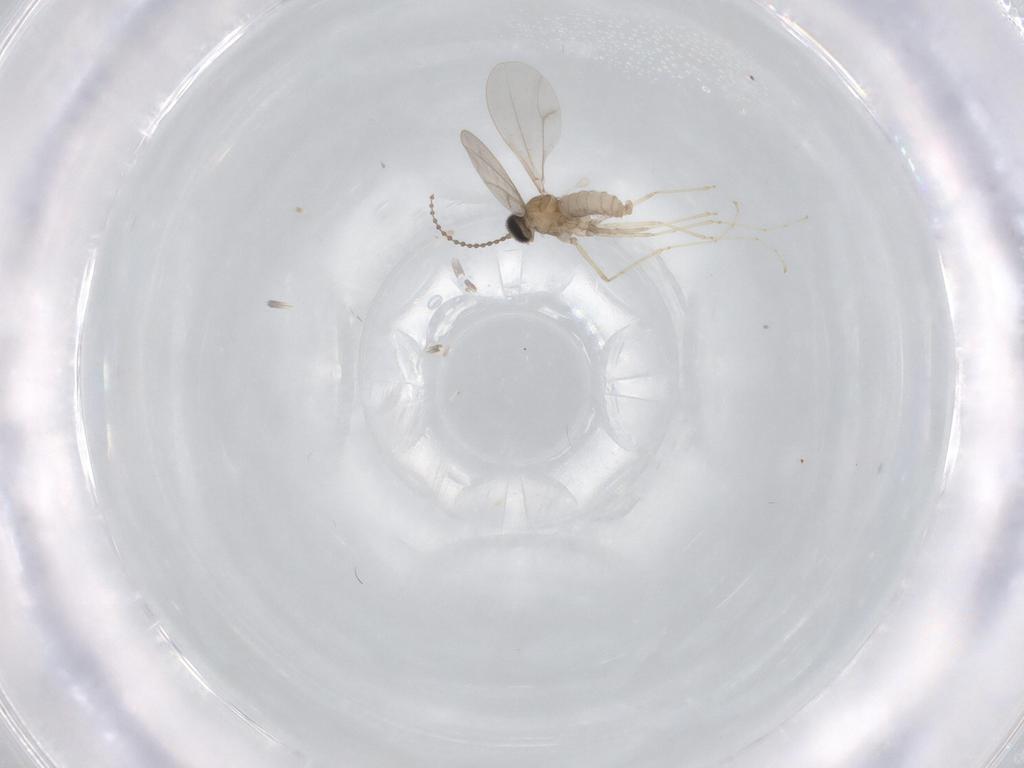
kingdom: Animalia
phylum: Arthropoda
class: Insecta
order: Diptera
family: Cecidomyiidae
